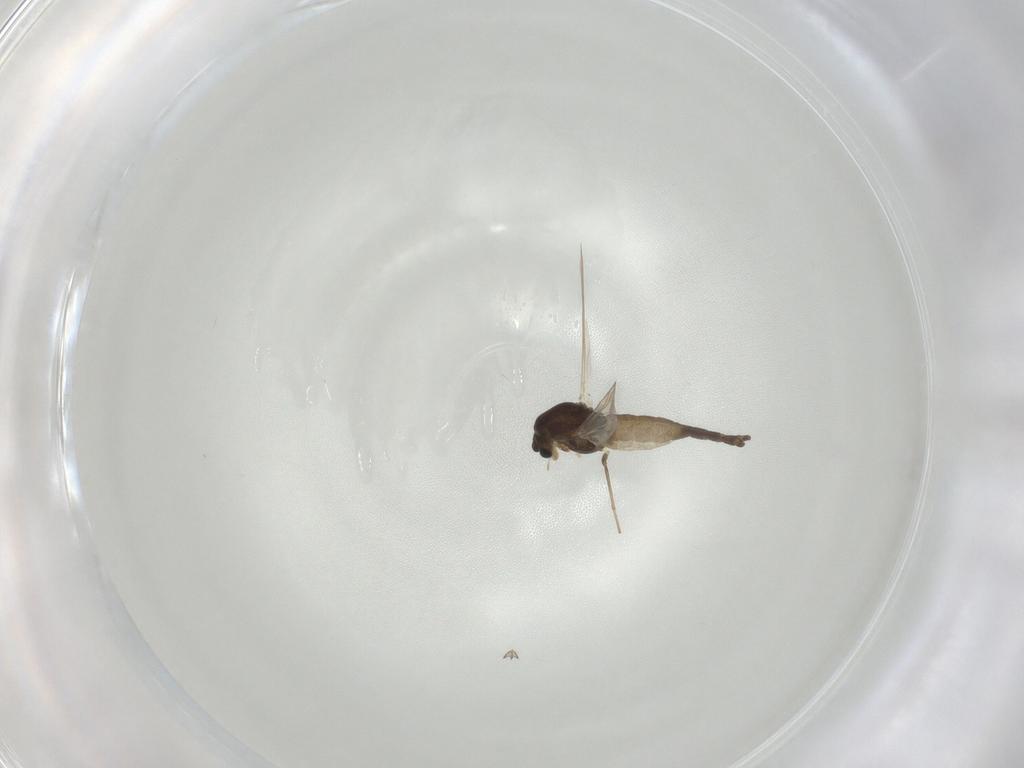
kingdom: Animalia
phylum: Arthropoda
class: Insecta
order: Diptera
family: Chironomidae
